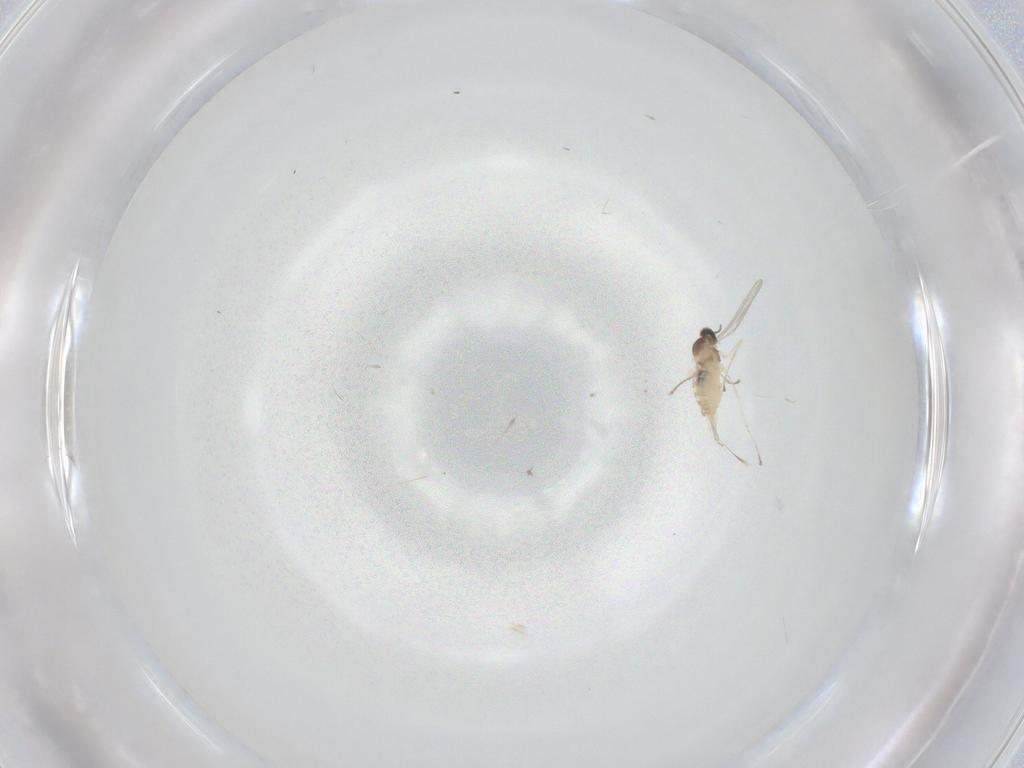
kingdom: Animalia
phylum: Arthropoda
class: Insecta
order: Diptera
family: Cecidomyiidae
